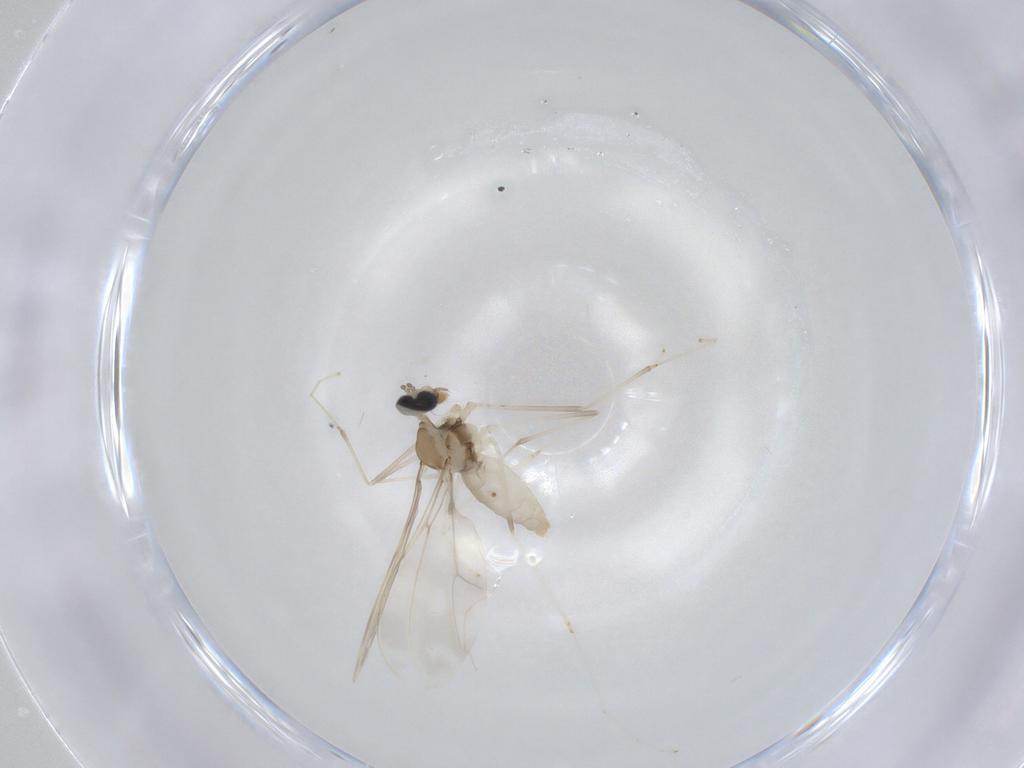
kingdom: Animalia
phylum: Arthropoda
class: Insecta
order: Diptera
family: Cecidomyiidae
